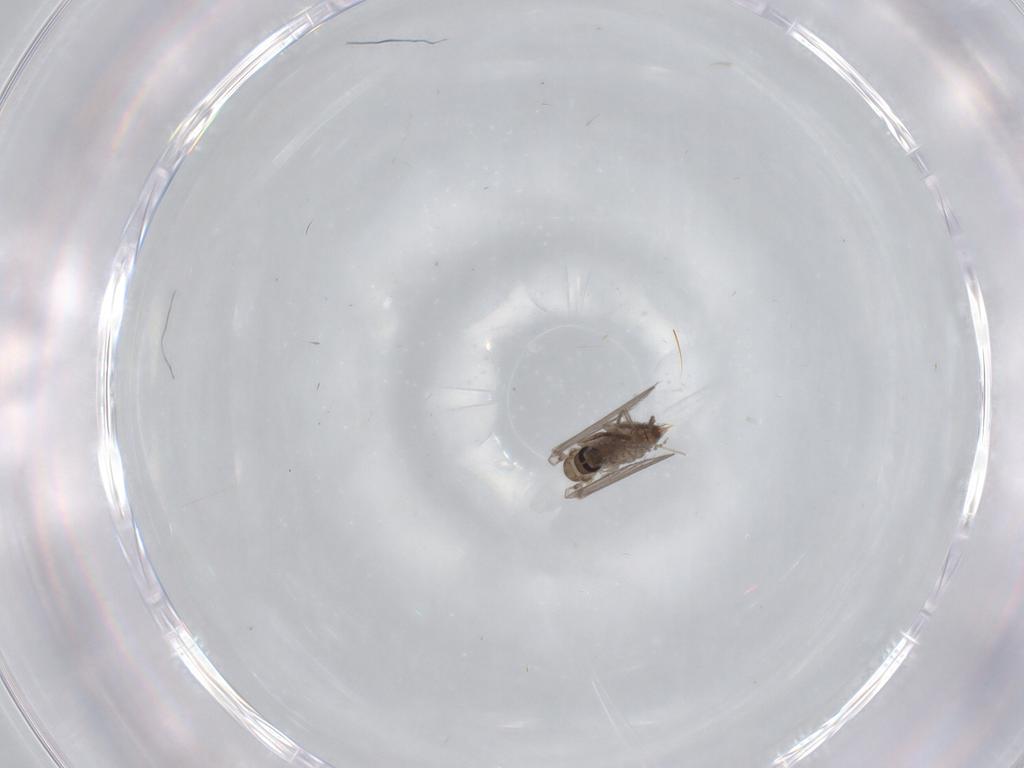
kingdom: Animalia
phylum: Arthropoda
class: Insecta
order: Diptera
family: Psychodidae
